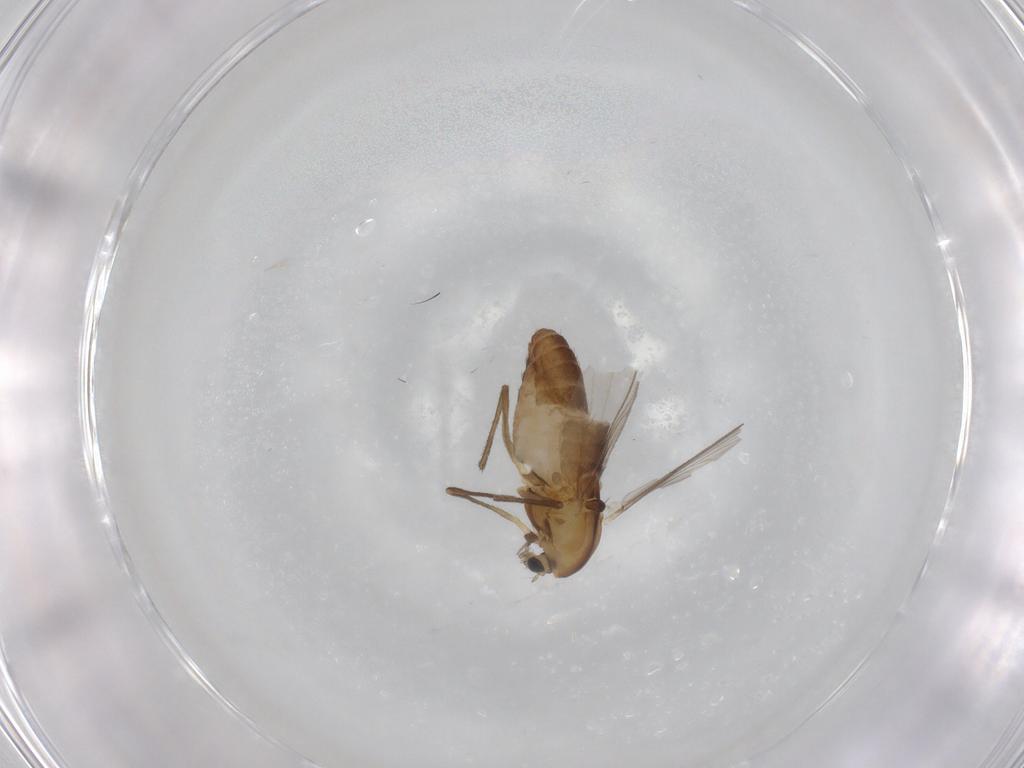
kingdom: Animalia
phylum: Arthropoda
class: Insecta
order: Diptera
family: Chironomidae
